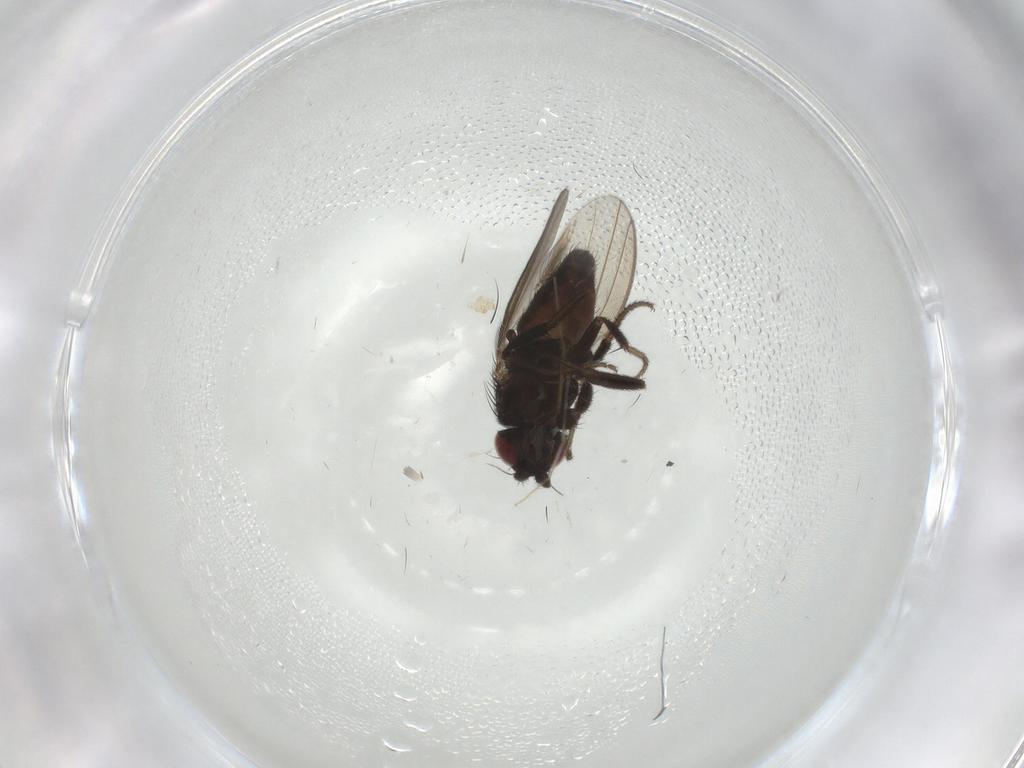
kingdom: Animalia
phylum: Arthropoda
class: Insecta
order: Diptera
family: Milichiidae
